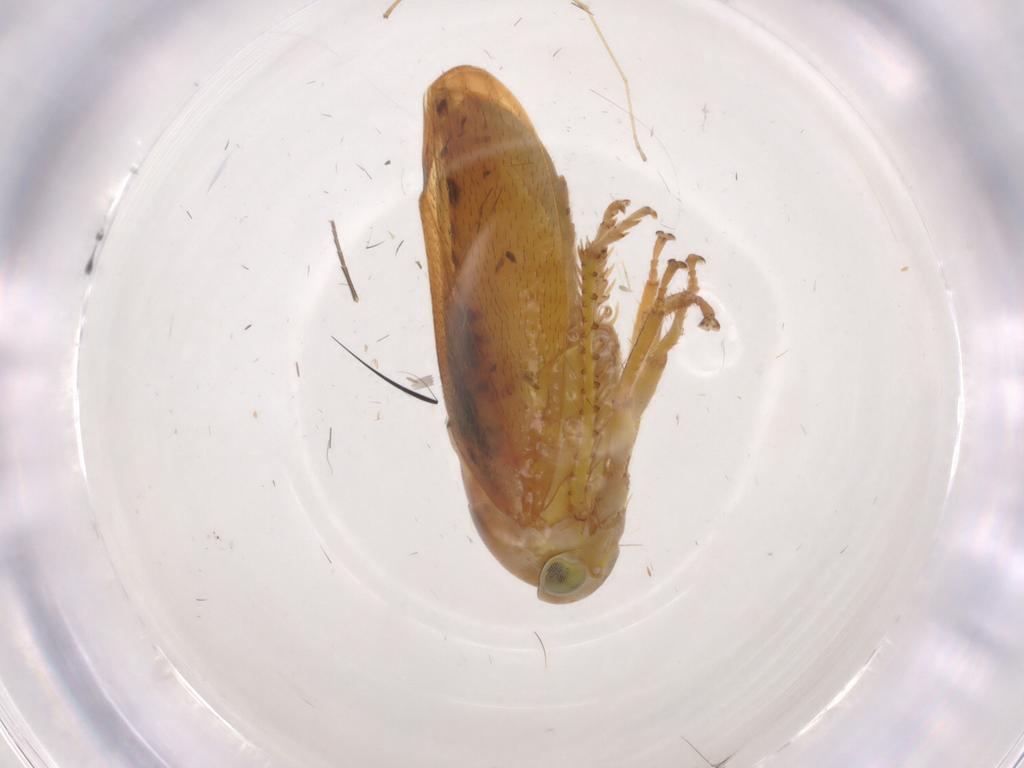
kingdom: Animalia
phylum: Arthropoda
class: Insecta
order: Hemiptera
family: Cicadellidae
